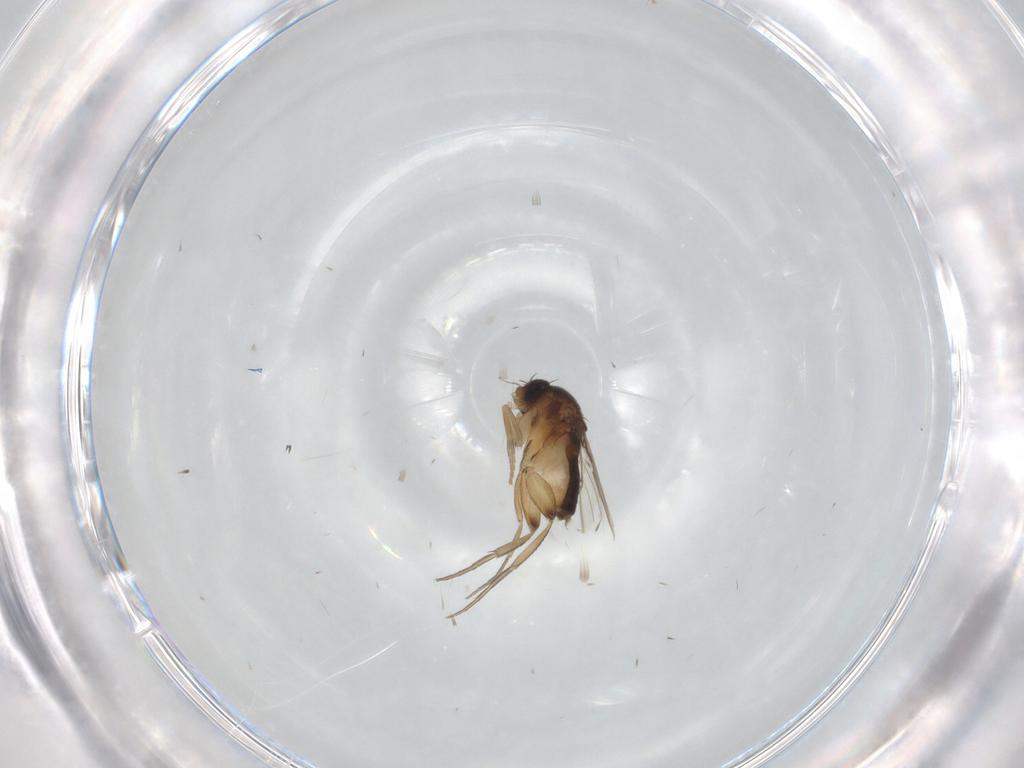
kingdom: Animalia
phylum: Arthropoda
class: Insecta
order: Diptera
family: Phoridae
